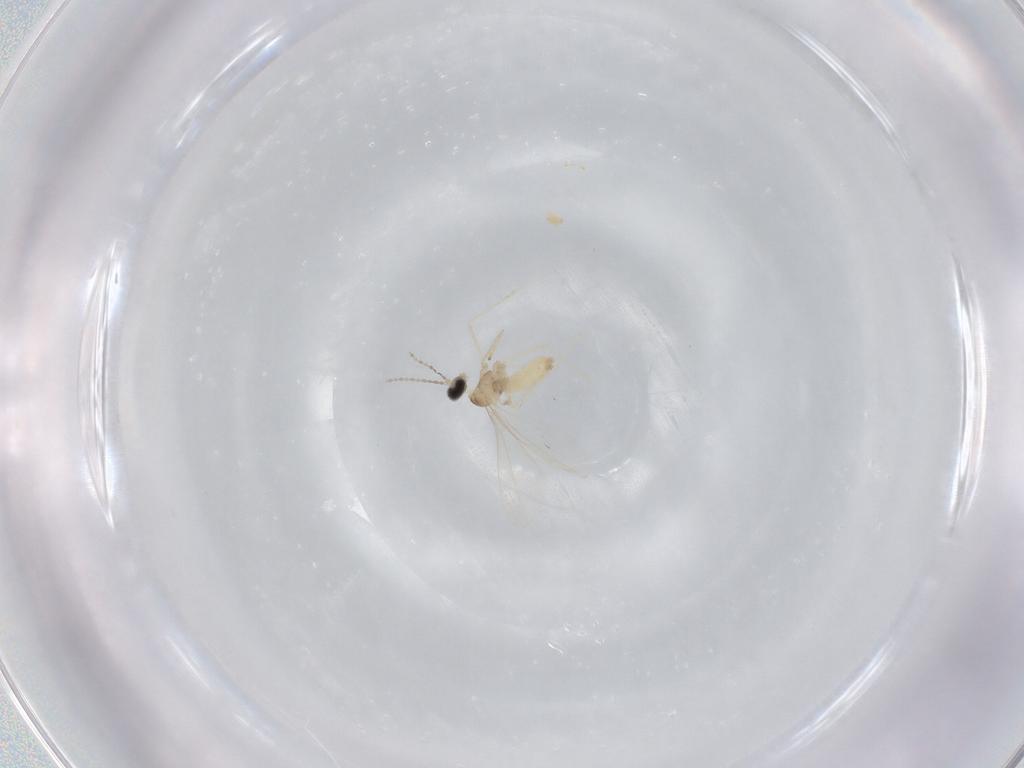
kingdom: Animalia
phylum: Arthropoda
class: Insecta
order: Diptera
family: Cecidomyiidae
